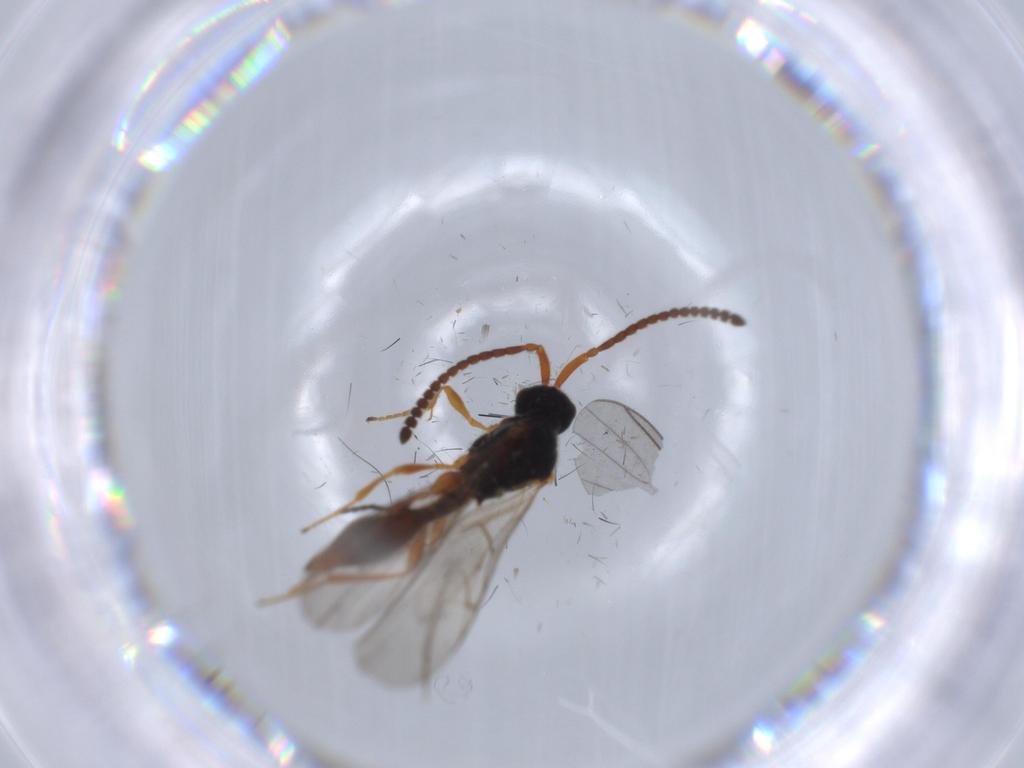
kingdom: Animalia
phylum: Arthropoda
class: Insecta
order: Hymenoptera
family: Braconidae
